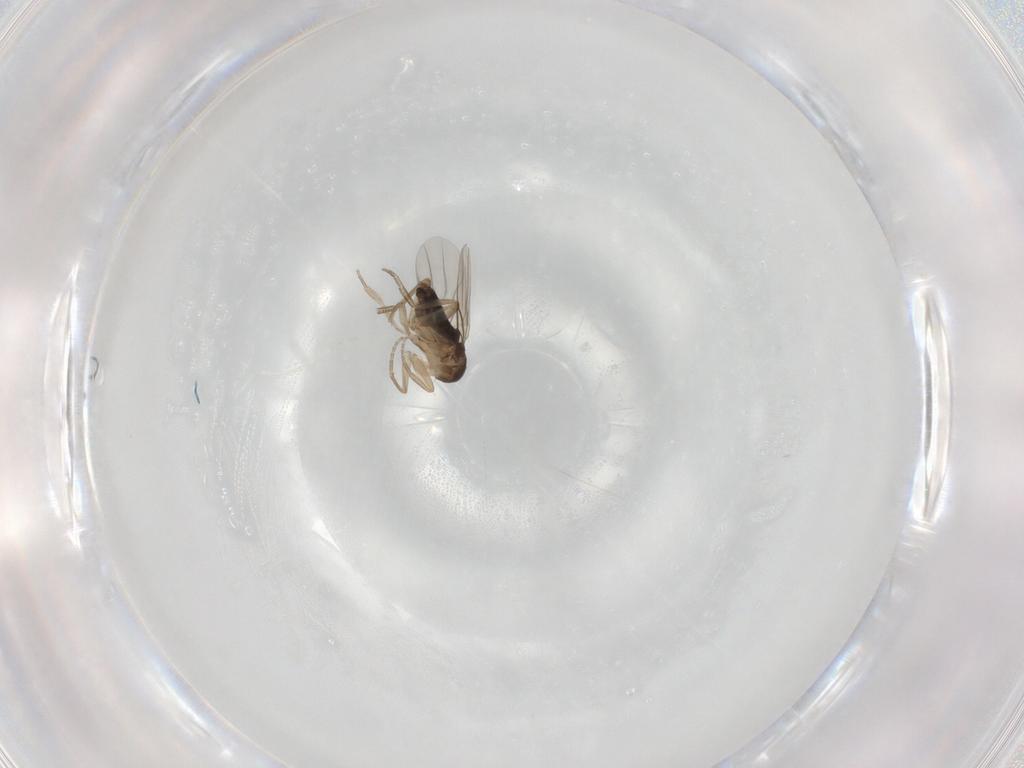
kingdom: Animalia
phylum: Arthropoda
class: Insecta
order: Diptera
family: Phoridae
